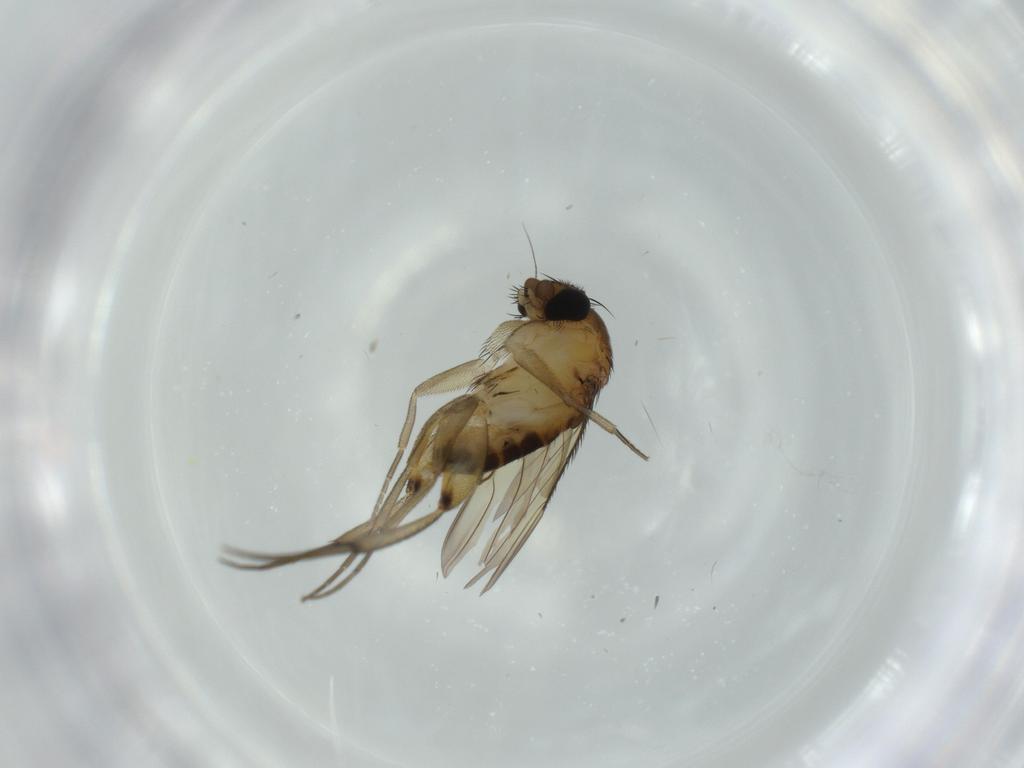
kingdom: Animalia
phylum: Arthropoda
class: Insecta
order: Diptera
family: Phoridae
